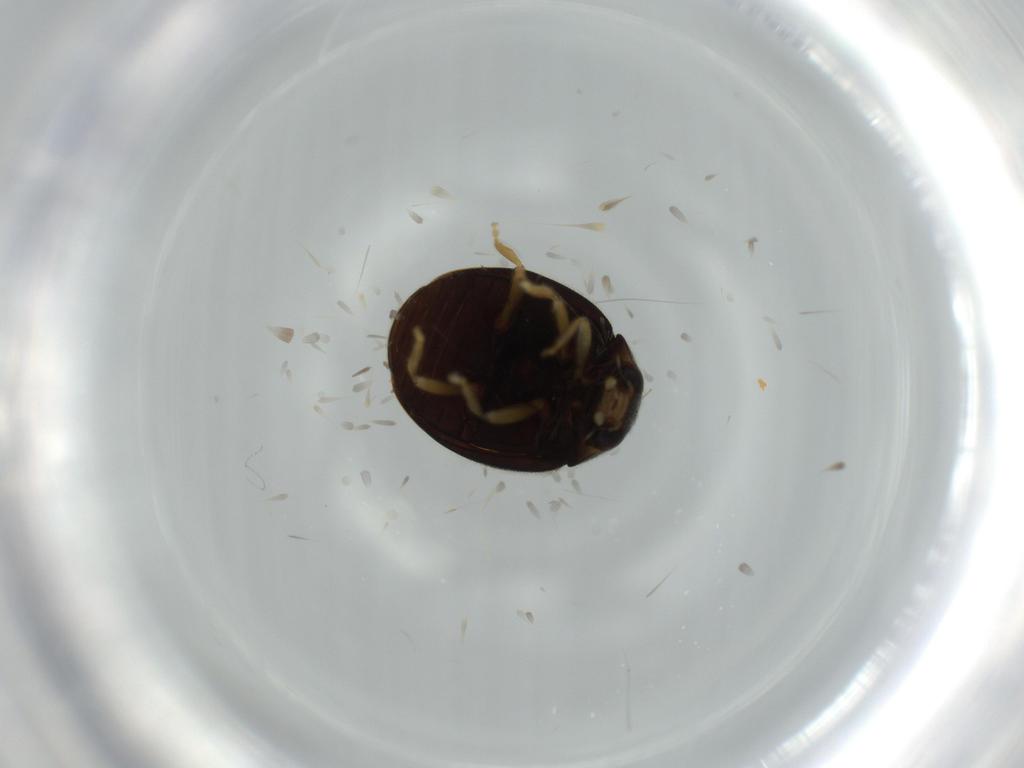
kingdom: Animalia
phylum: Arthropoda
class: Insecta
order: Coleoptera
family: Coccinellidae
